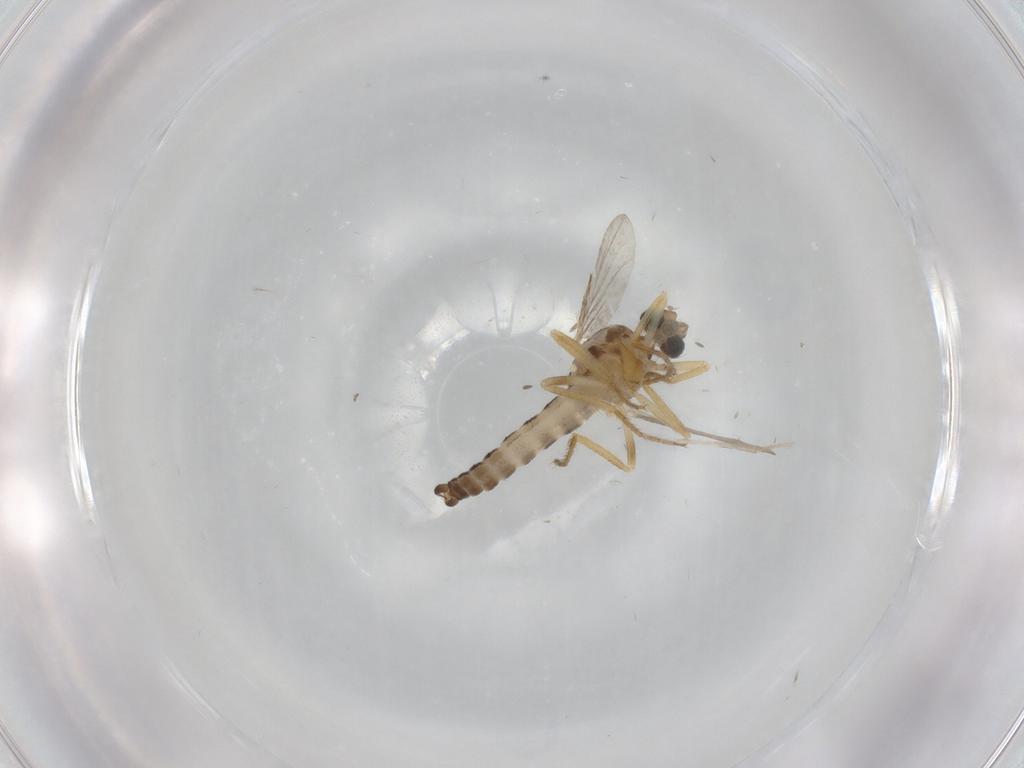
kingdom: Animalia
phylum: Arthropoda
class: Insecta
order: Diptera
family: Ceratopogonidae
